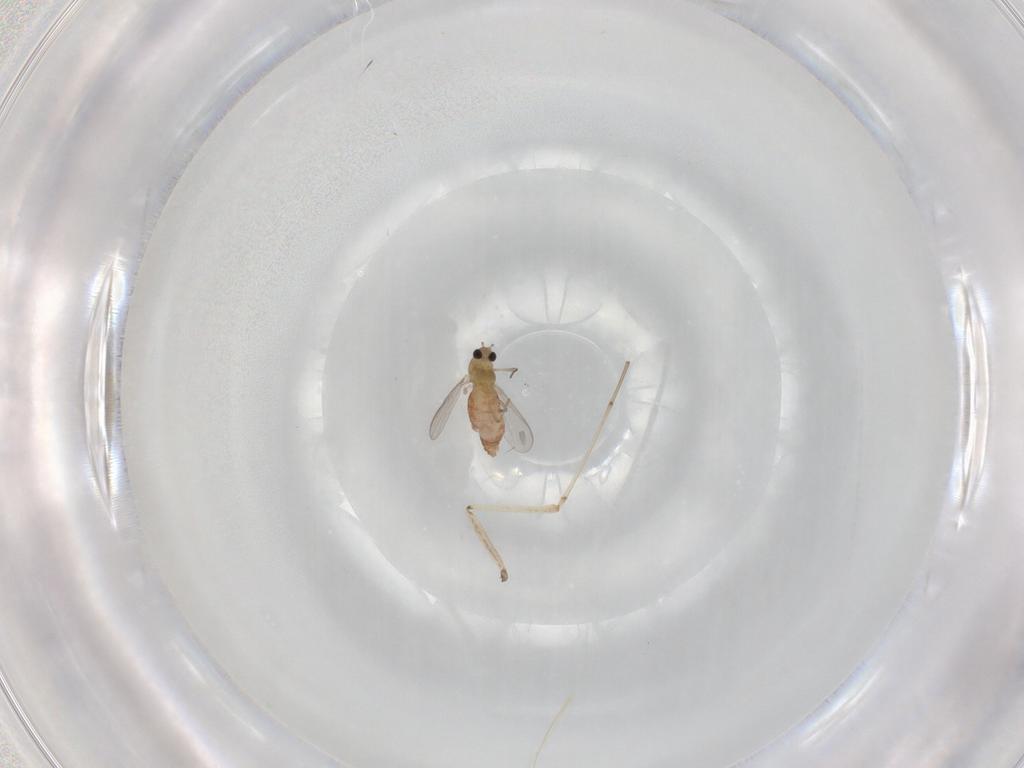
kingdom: Animalia
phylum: Arthropoda
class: Insecta
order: Diptera
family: Chironomidae
